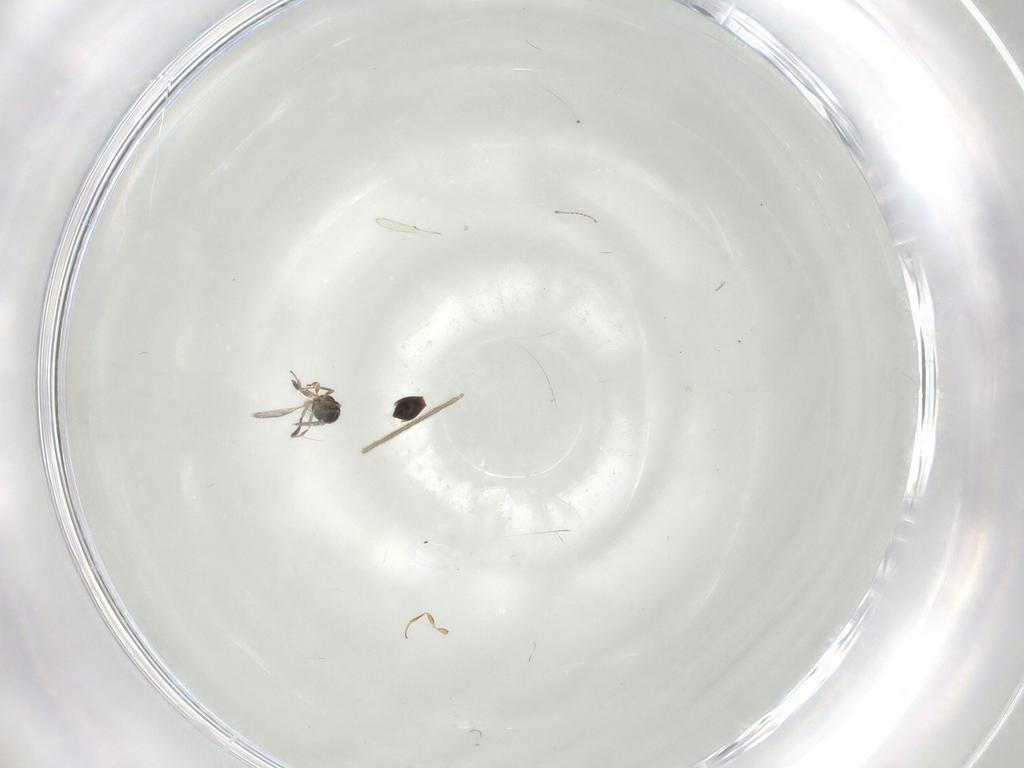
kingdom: Animalia
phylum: Arthropoda
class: Insecta
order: Hymenoptera
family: Scelionidae
